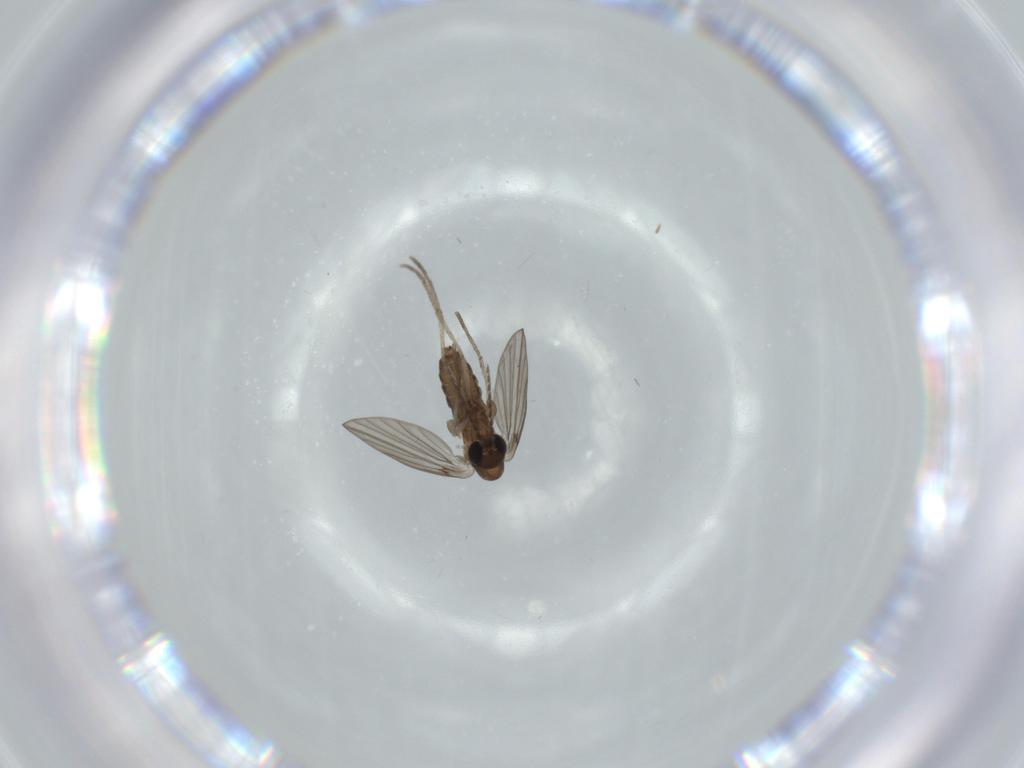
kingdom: Animalia
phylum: Arthropoda
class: Insecta
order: Diptera
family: Psychodidae
